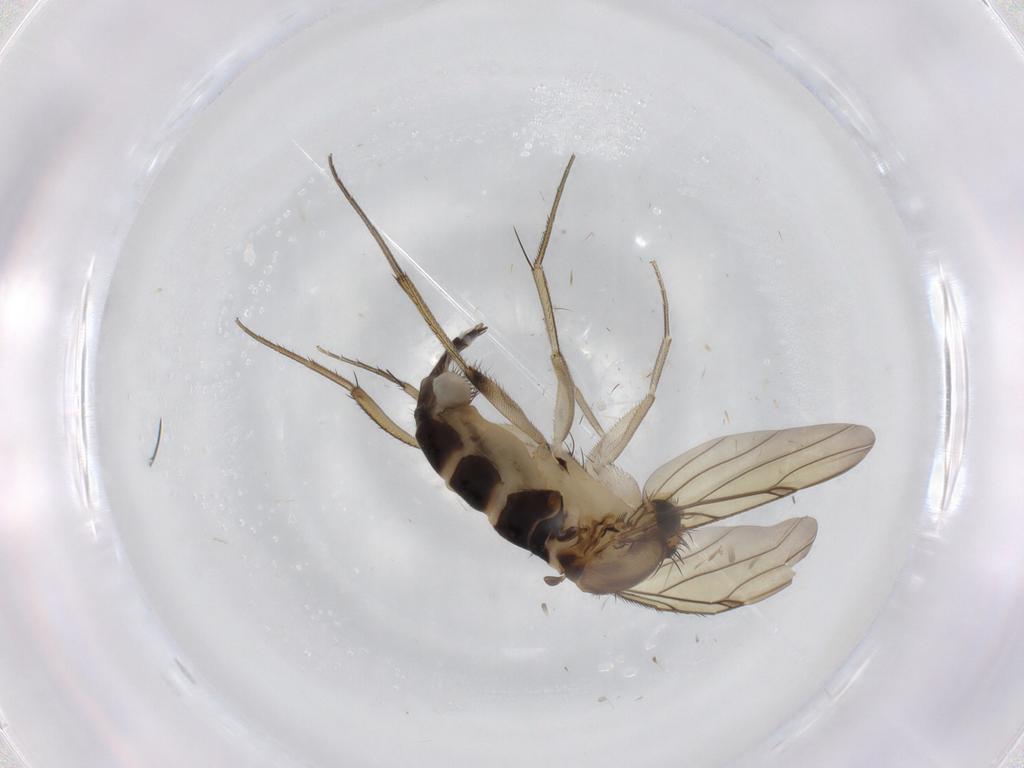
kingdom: Animalia
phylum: Arthropoda
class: Insecta
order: Diptera
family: Phoridae
